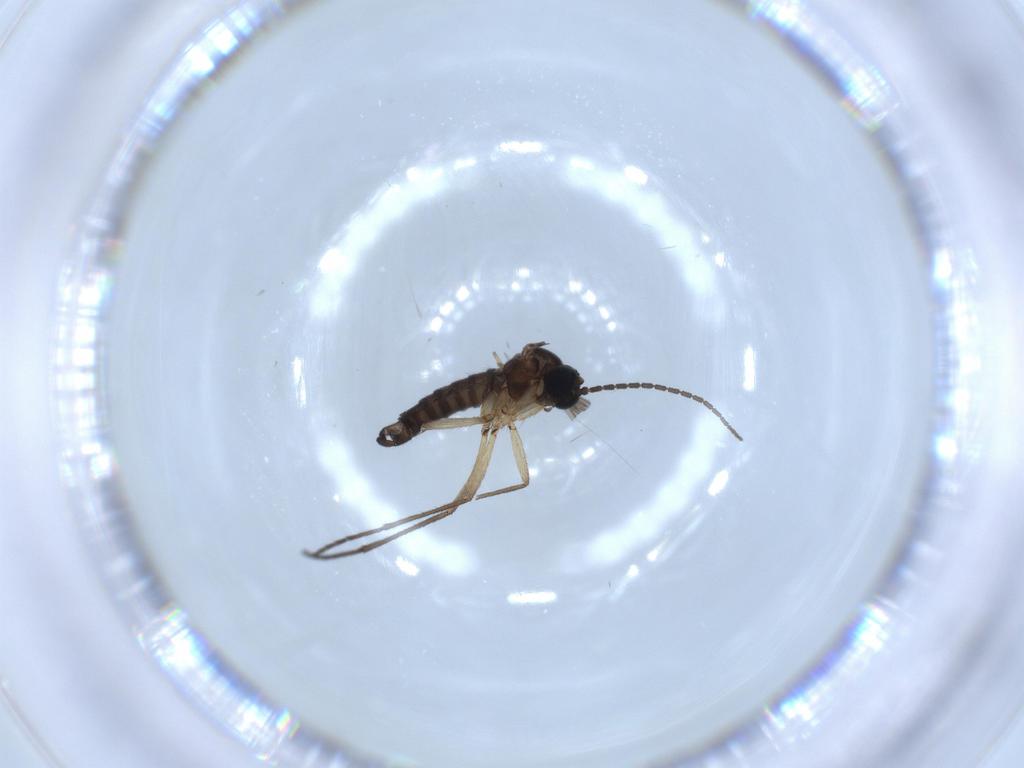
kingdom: Animalia
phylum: Arthropoda
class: Insecta
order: Diptera
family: Sciaridae
